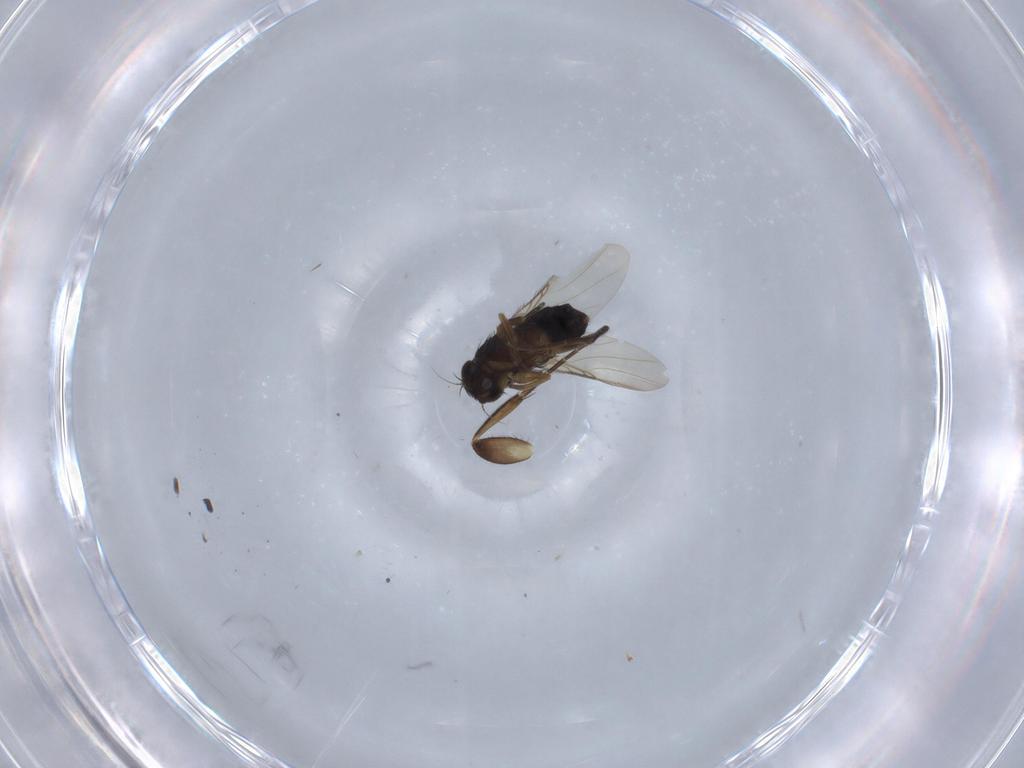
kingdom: Animalia
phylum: Arthropoda
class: Insecta
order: Diptera
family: Phoridae
